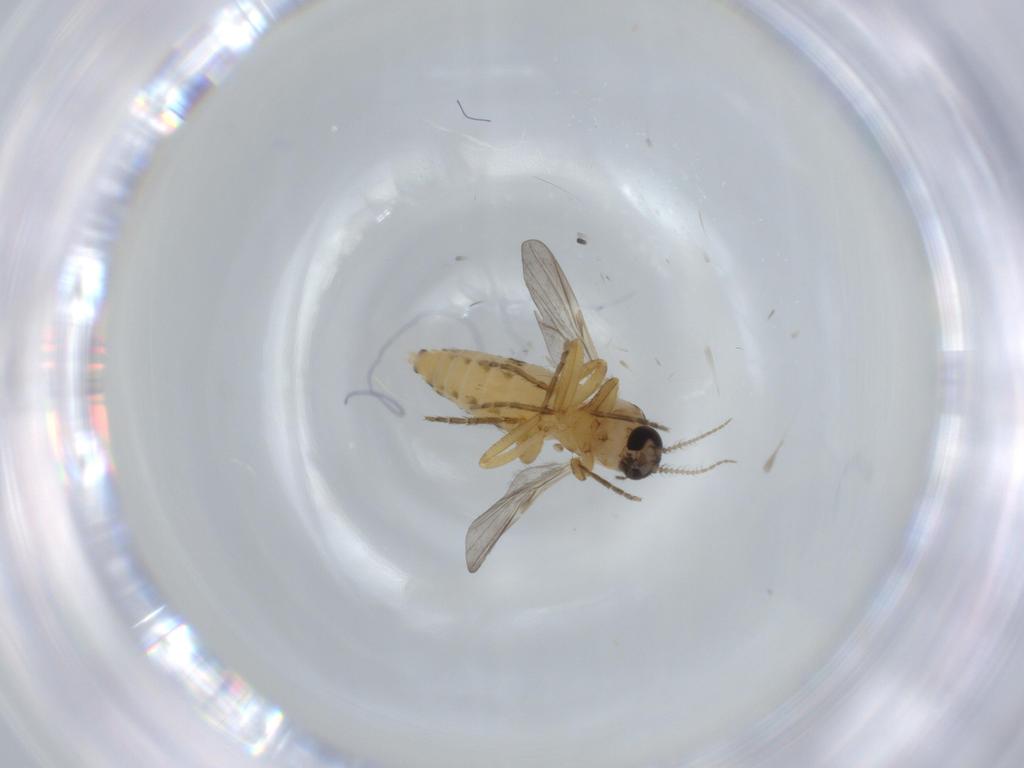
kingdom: Animalia
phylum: Arthropoda
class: Insecta
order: Diptera
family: Ceratopogonidae
